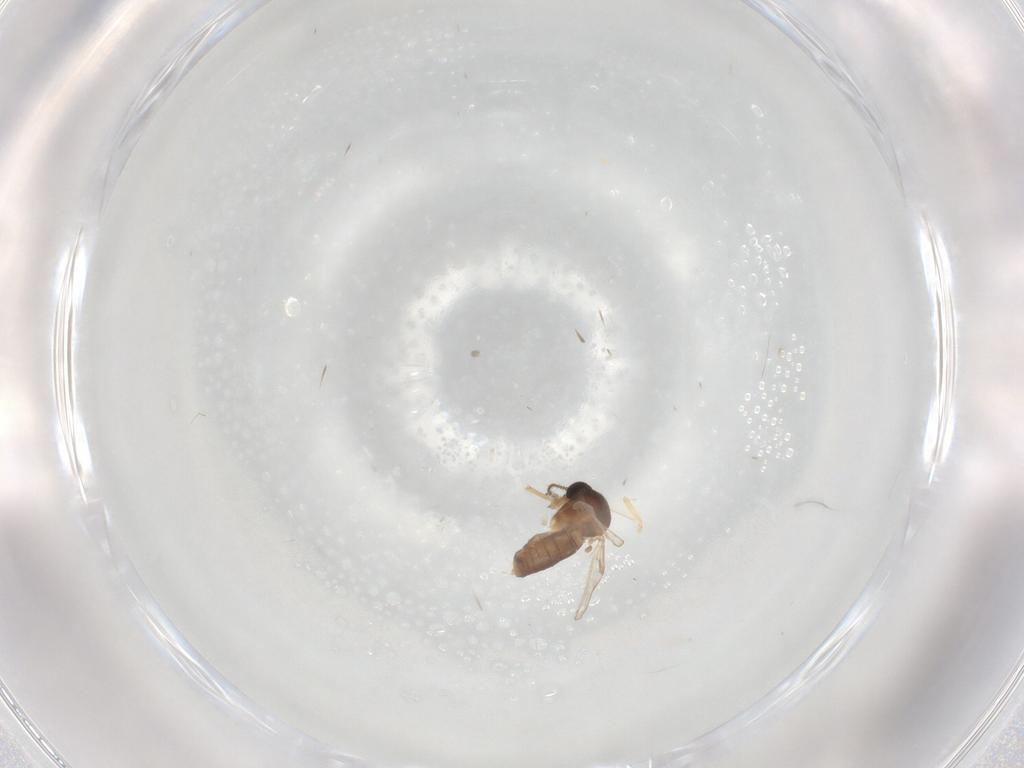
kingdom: Animalia
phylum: Arthropoda
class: Insecta
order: Diptera
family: Ceratopogonidae
